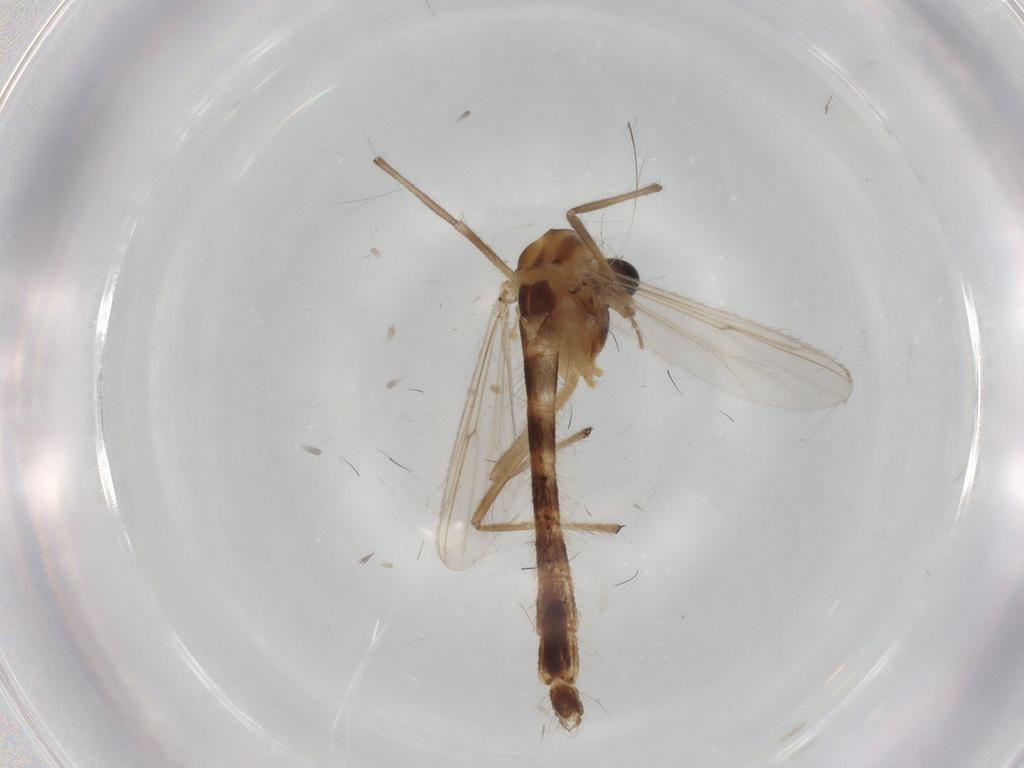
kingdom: Animalia
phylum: Arthropoda
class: Insecta
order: Diptera
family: Chironomidae
